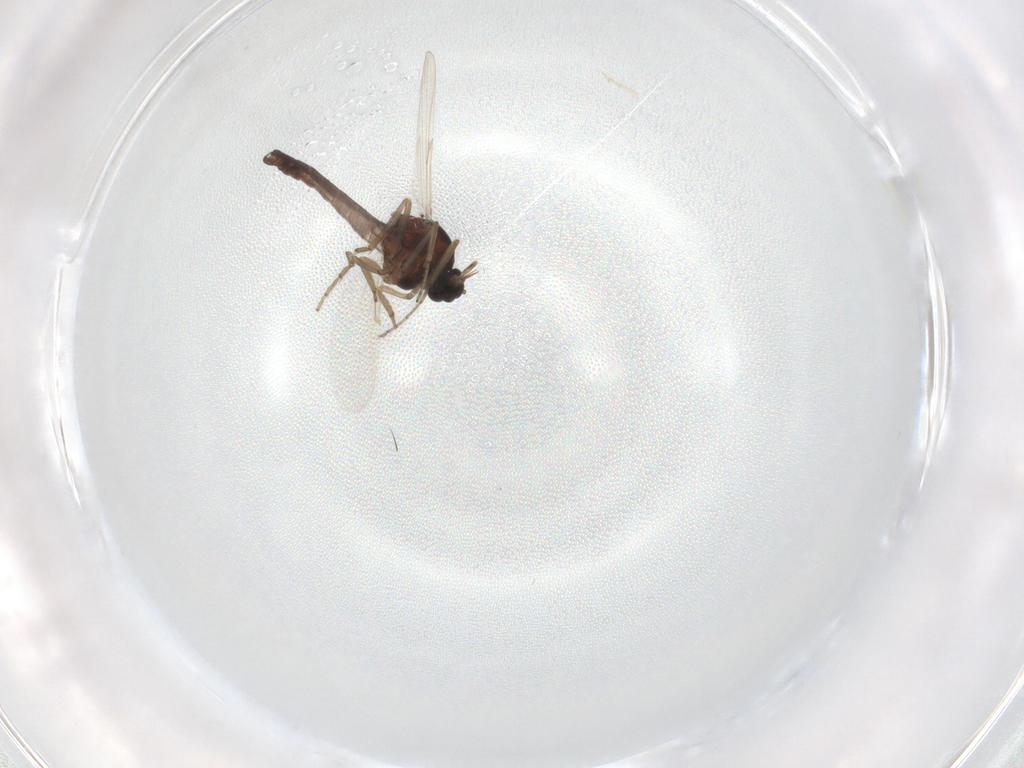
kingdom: Animalia
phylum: Arthropoda
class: Insecta
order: Diptera
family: Ceratopogonidae
